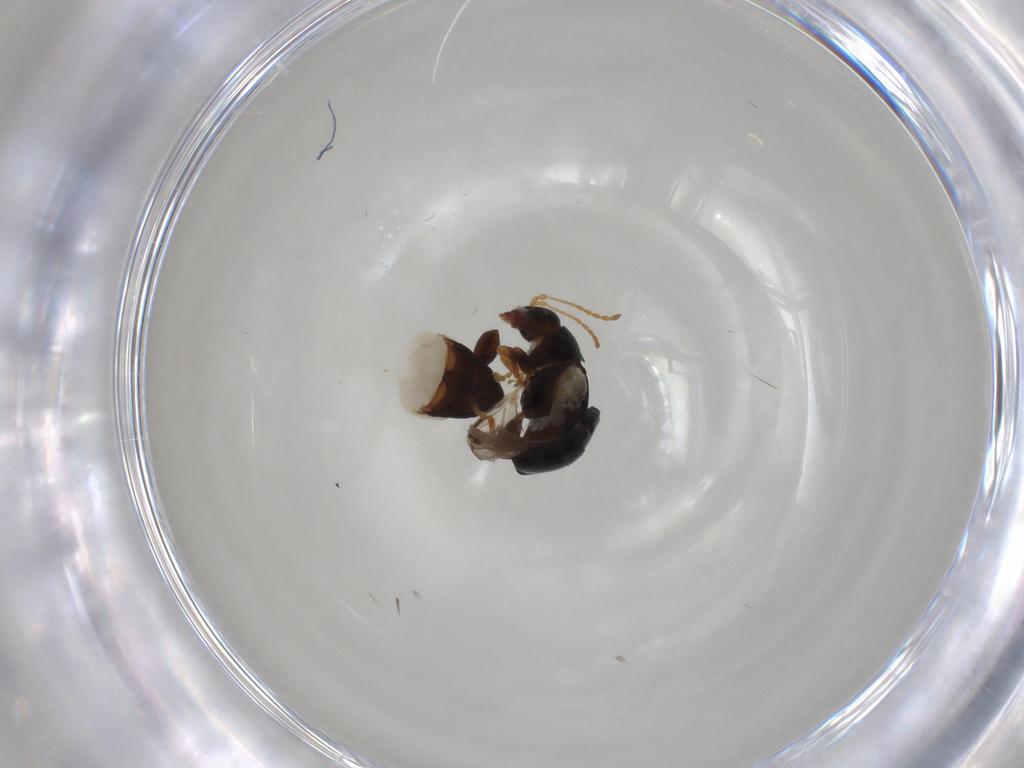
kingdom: Animalia
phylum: Arthropoda
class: Insecta
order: Coleoptera
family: Chrysomelidae
